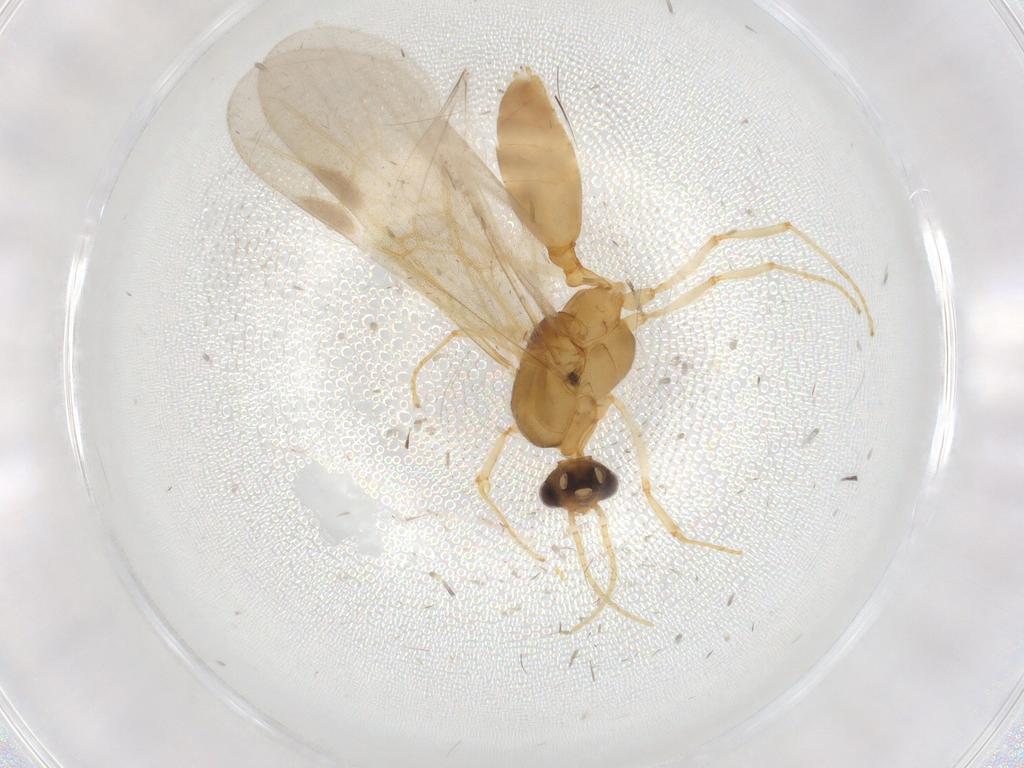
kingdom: Animalia
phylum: Arthropoda
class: Insecta
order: Hymenoptera
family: Formicidae
